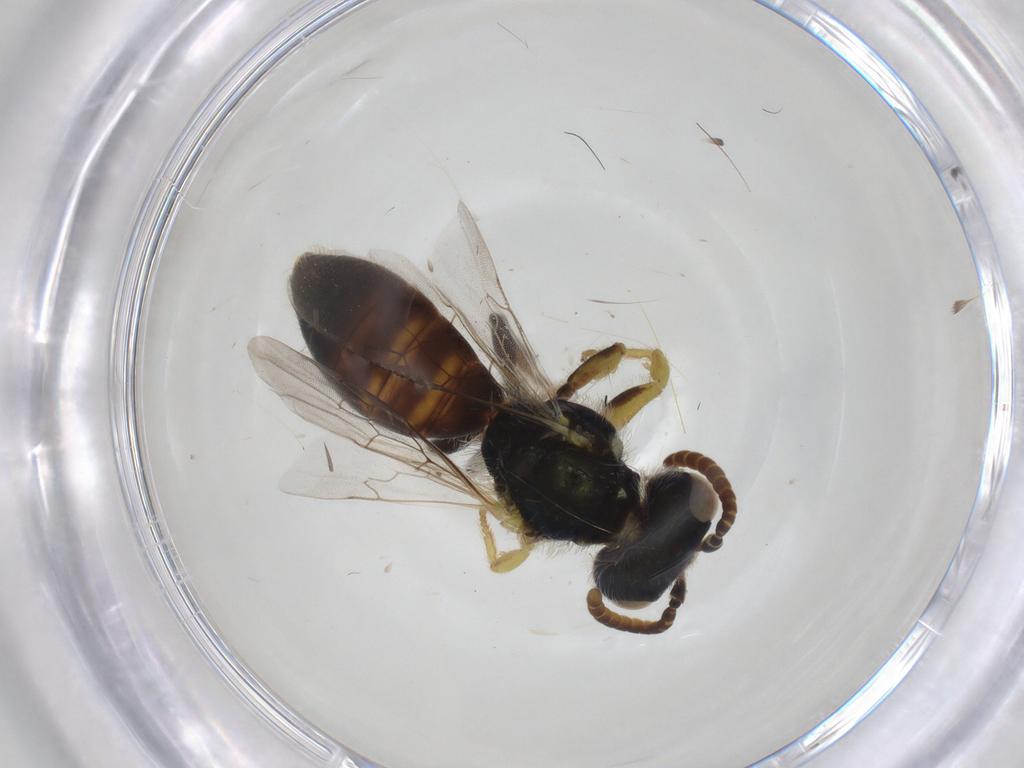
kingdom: Animalia
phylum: Arthropoda
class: Insecta
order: Hymenoptera
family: Andrenidae
